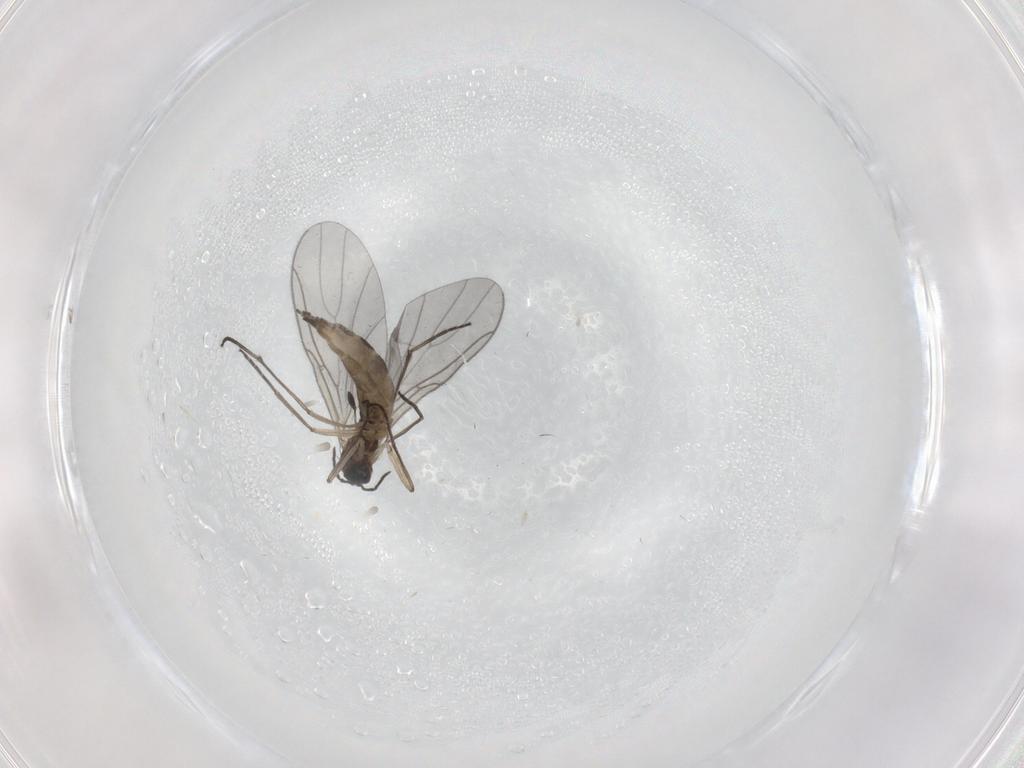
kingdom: Animalia
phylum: Arthropoda
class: Insecta
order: Diptera
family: Sciaridae
